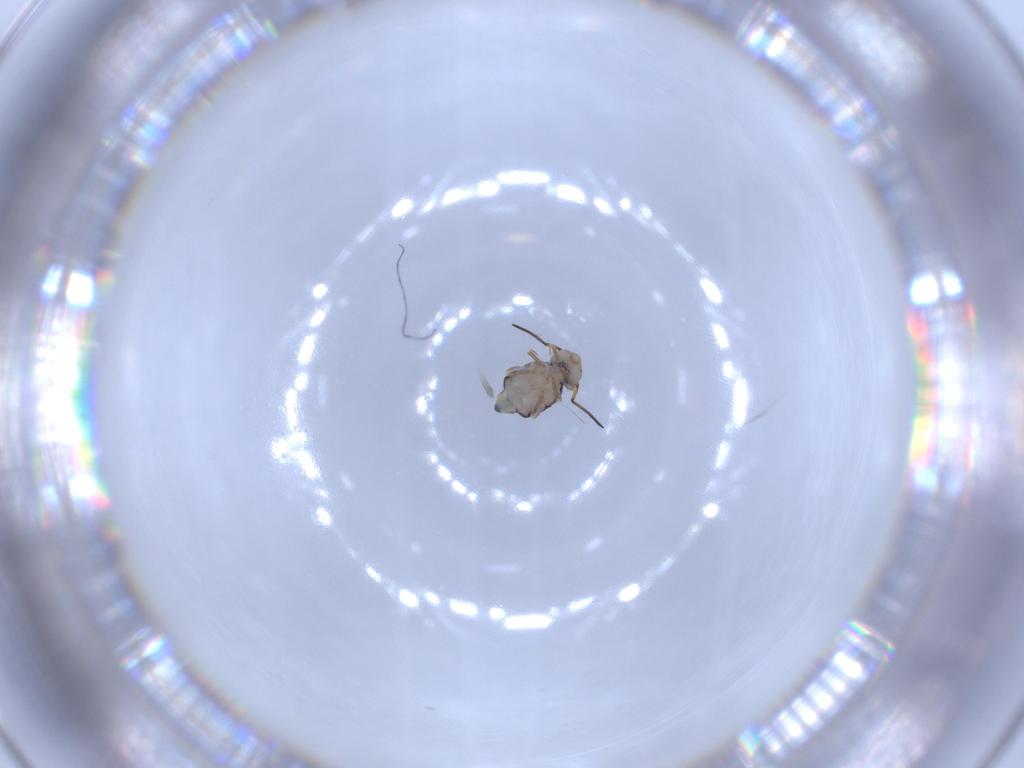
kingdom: Animalia
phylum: Arthropoda
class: Collembola
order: Symphypleona
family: Katiannidae
